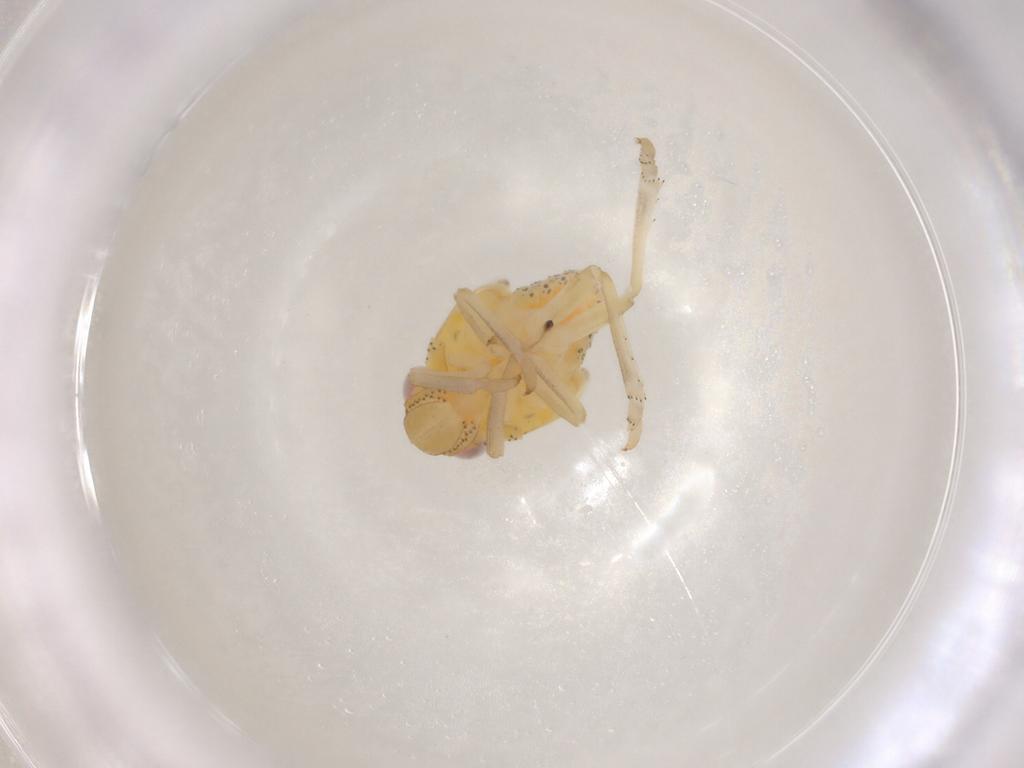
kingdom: Animalia
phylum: Arthropoda
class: Insecta
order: Hemiptera
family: Tropiduchidae
